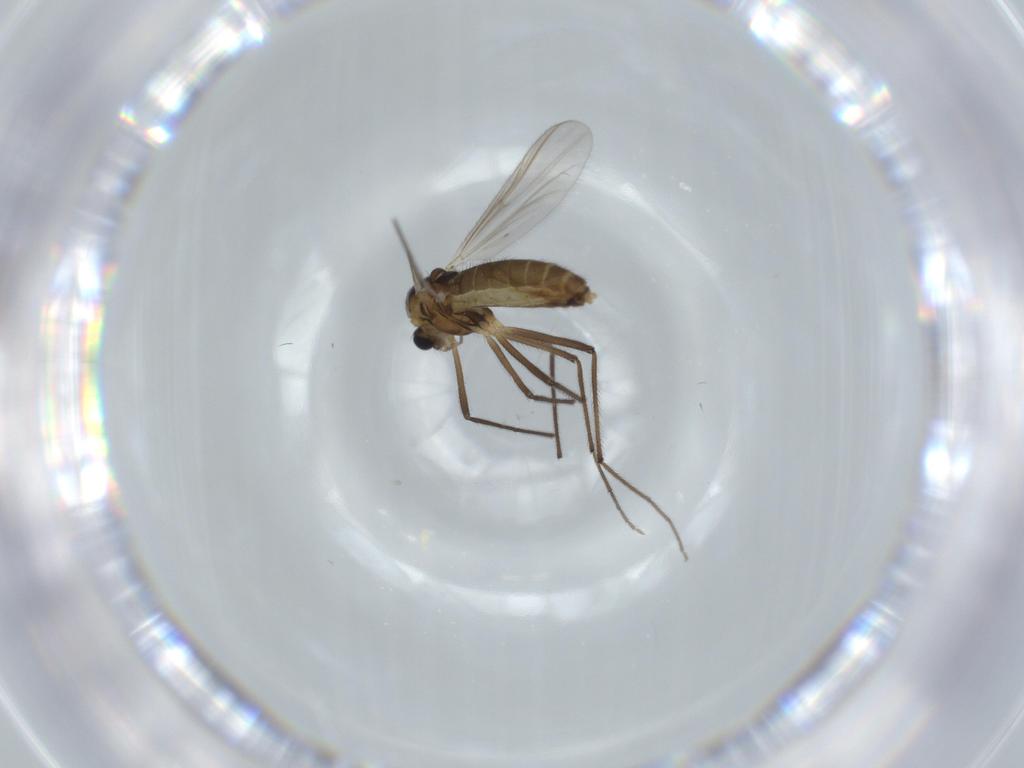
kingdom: Animalia
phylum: Arthropoda
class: Insecta
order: Diptera
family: Chironomidae
